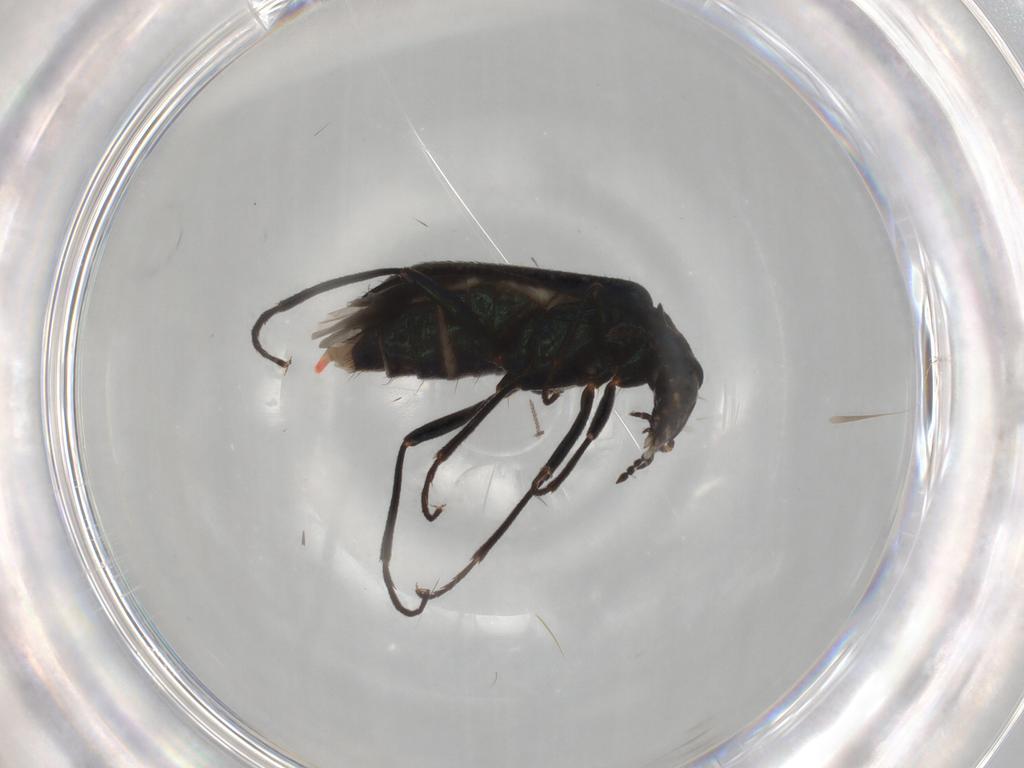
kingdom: Animalia
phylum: Arthropoda
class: Insecta
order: Coleoptera
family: Melyridae
